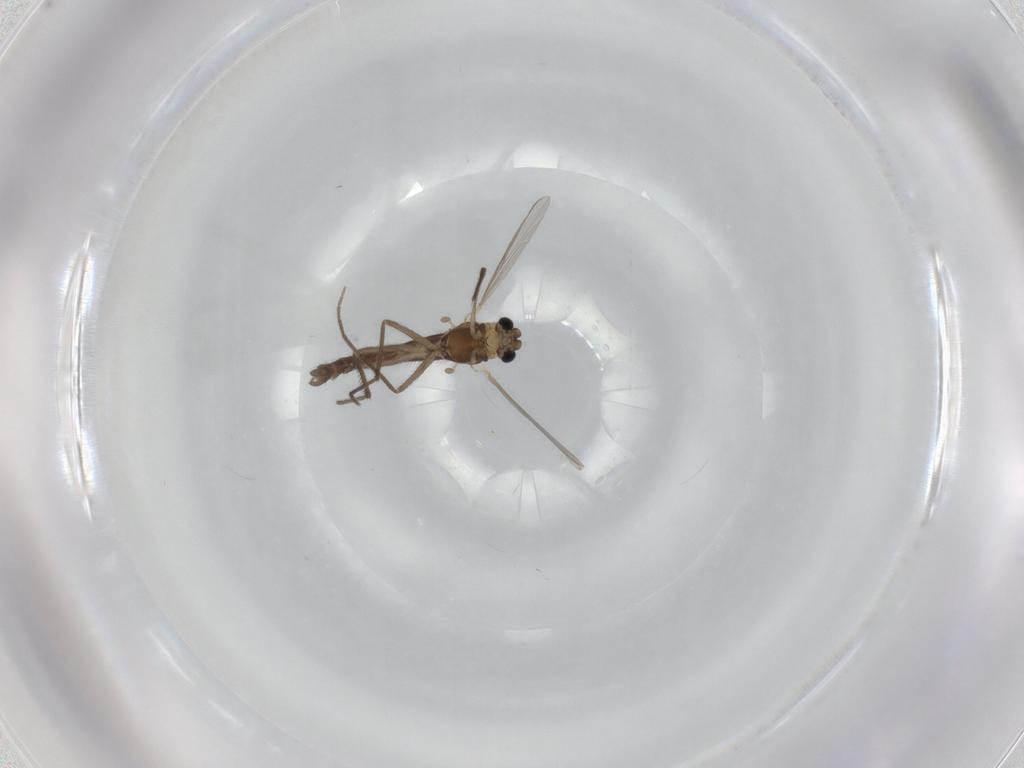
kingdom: Animalia
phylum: Arthropoda
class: Insecta
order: Diptera
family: Chironomidae
